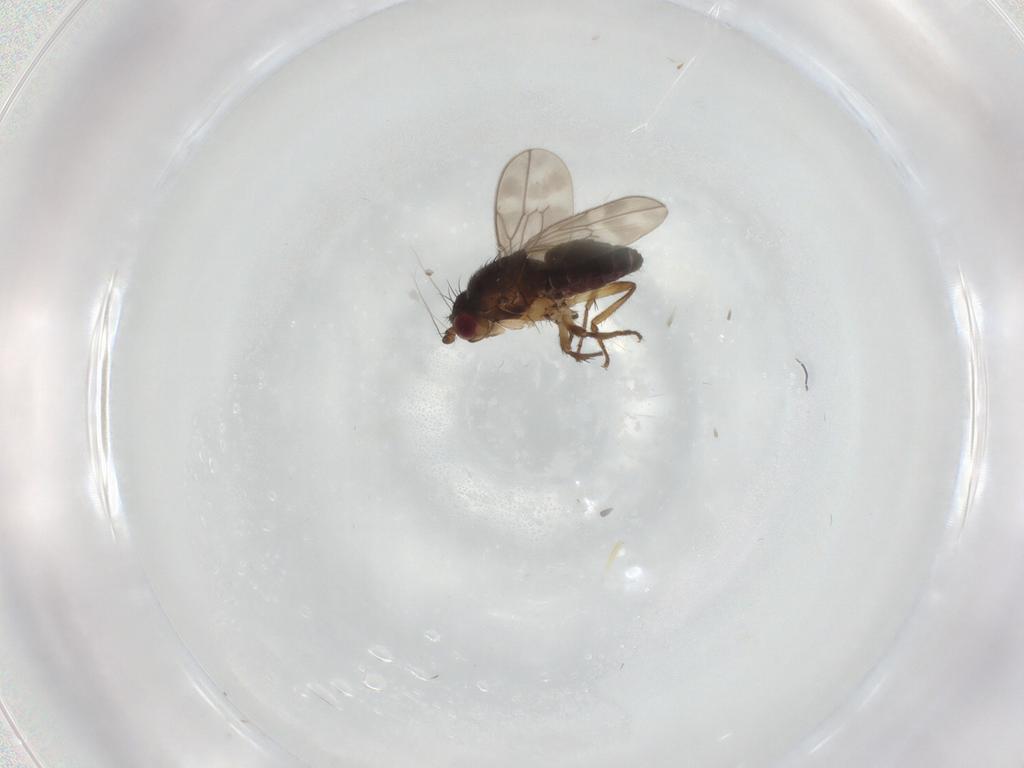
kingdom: Animalia
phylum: Arthropoda
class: Insecta
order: Diptera
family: Sphaeroceridae
